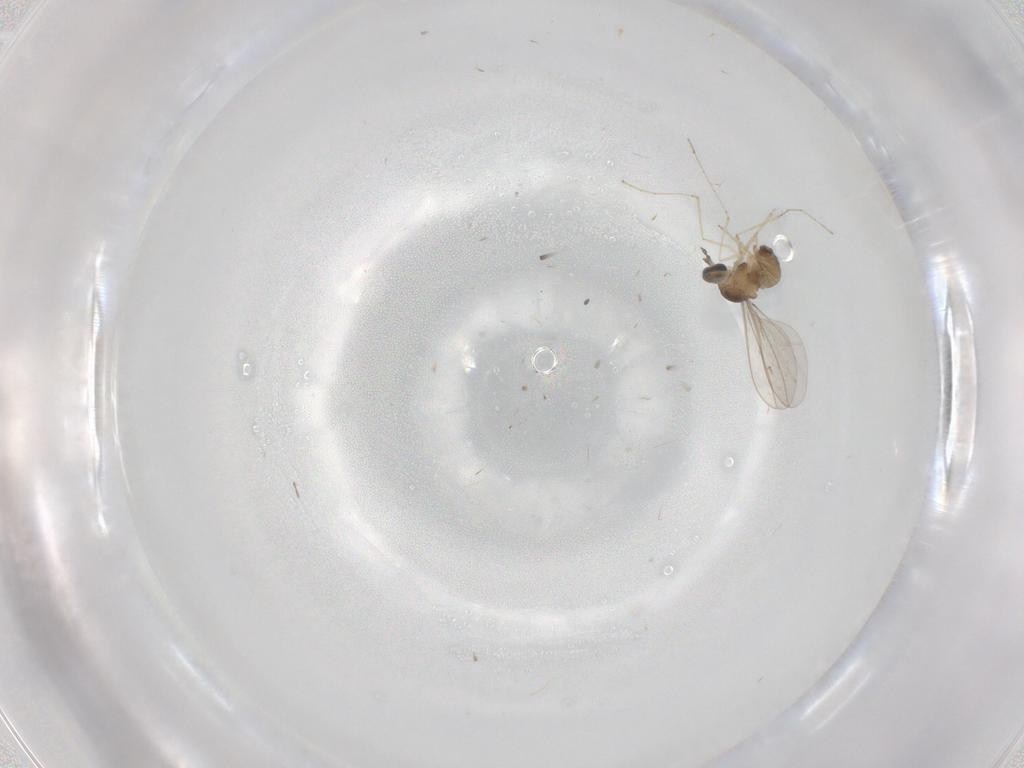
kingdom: Animalia
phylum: Arthropoda
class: Insecta
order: Diptera
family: Cecidomyiidae
